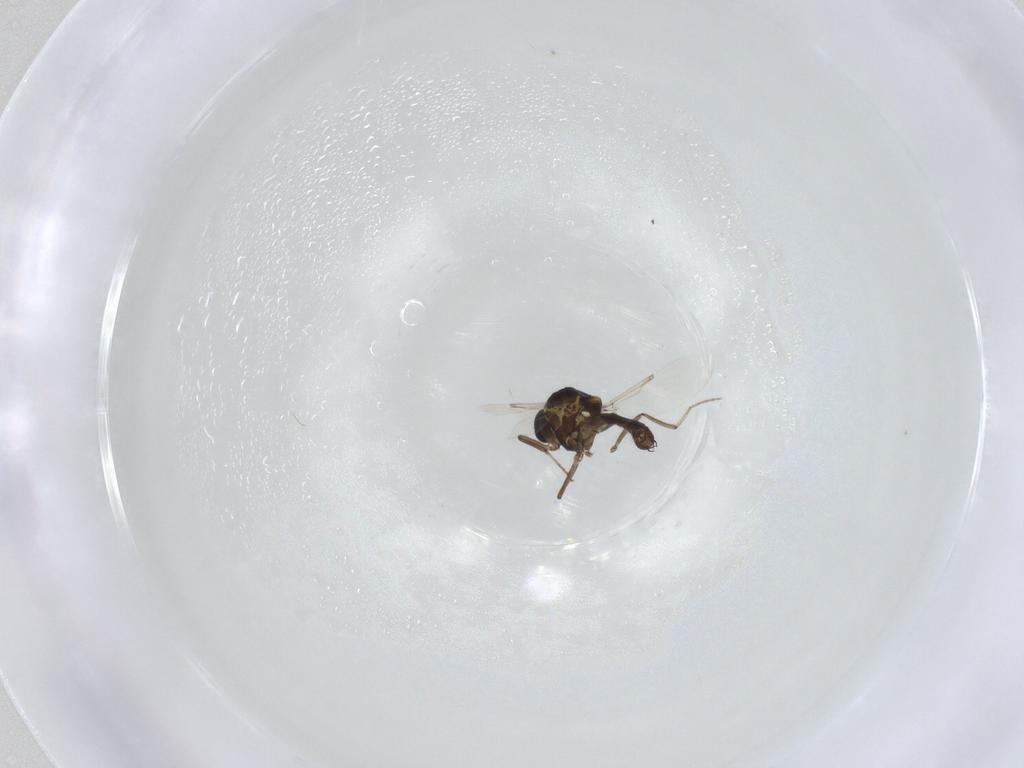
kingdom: Animalia
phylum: Arthropoda
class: Insecta
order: Diptera
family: Ceratopogonidae
